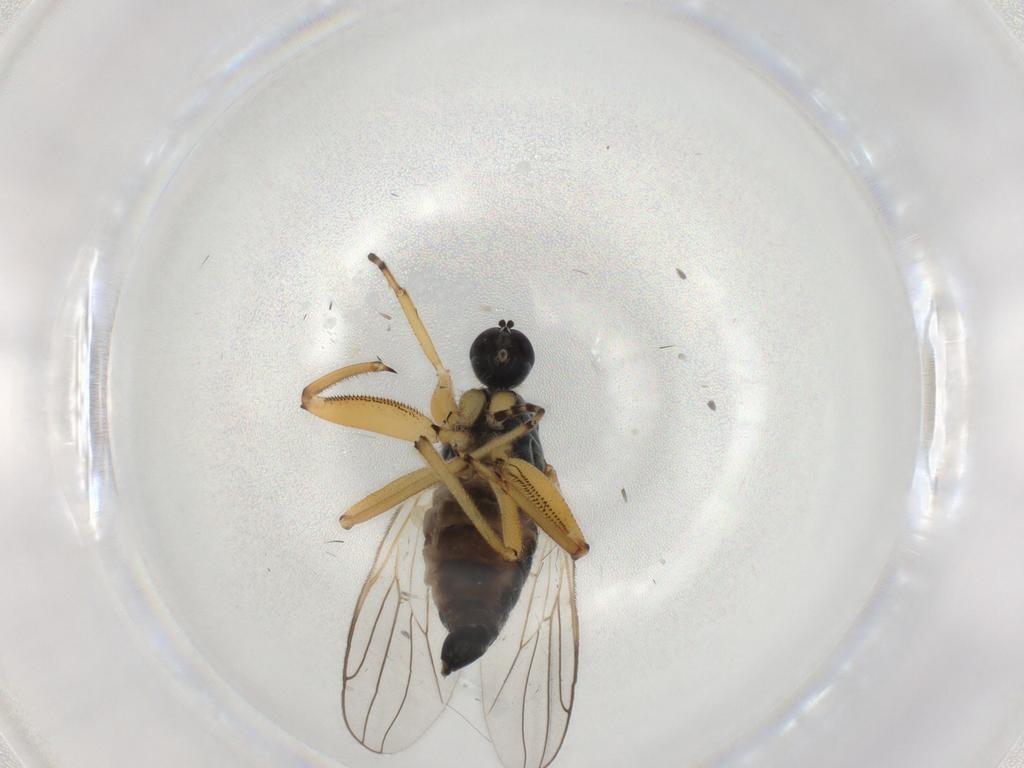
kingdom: Animalia
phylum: Arthropoda
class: Insecta
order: Diptera
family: Hybotidae
